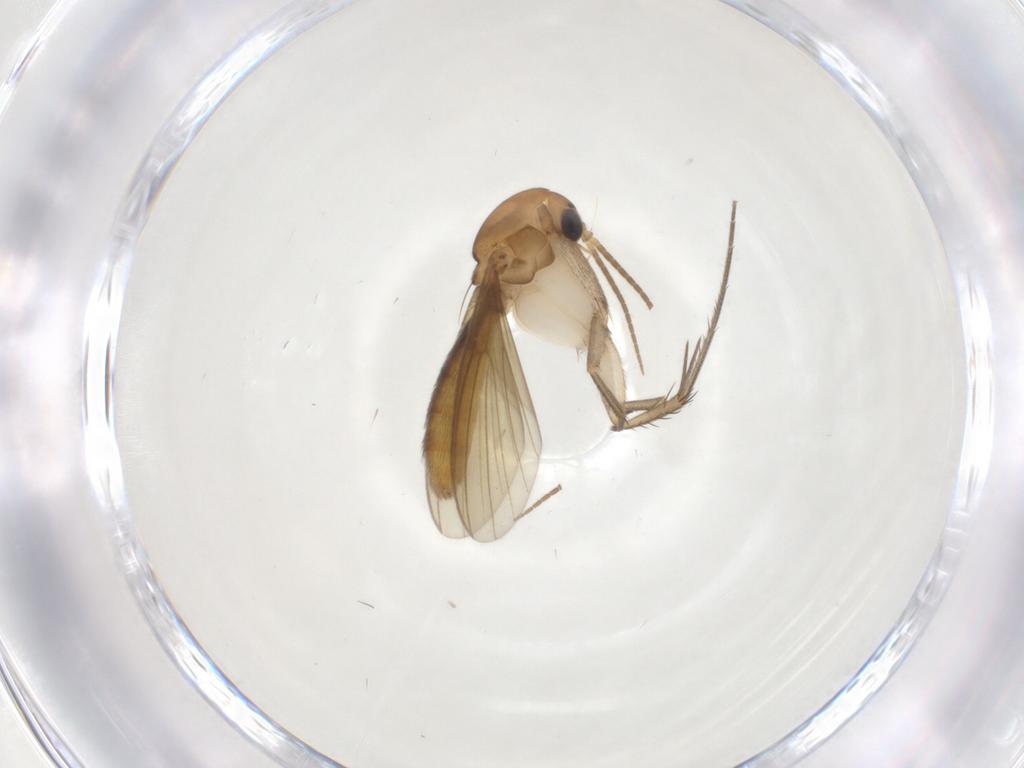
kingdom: Animalia
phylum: Arthropoda
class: Insecta
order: Diptera
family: Mycetophilidae
